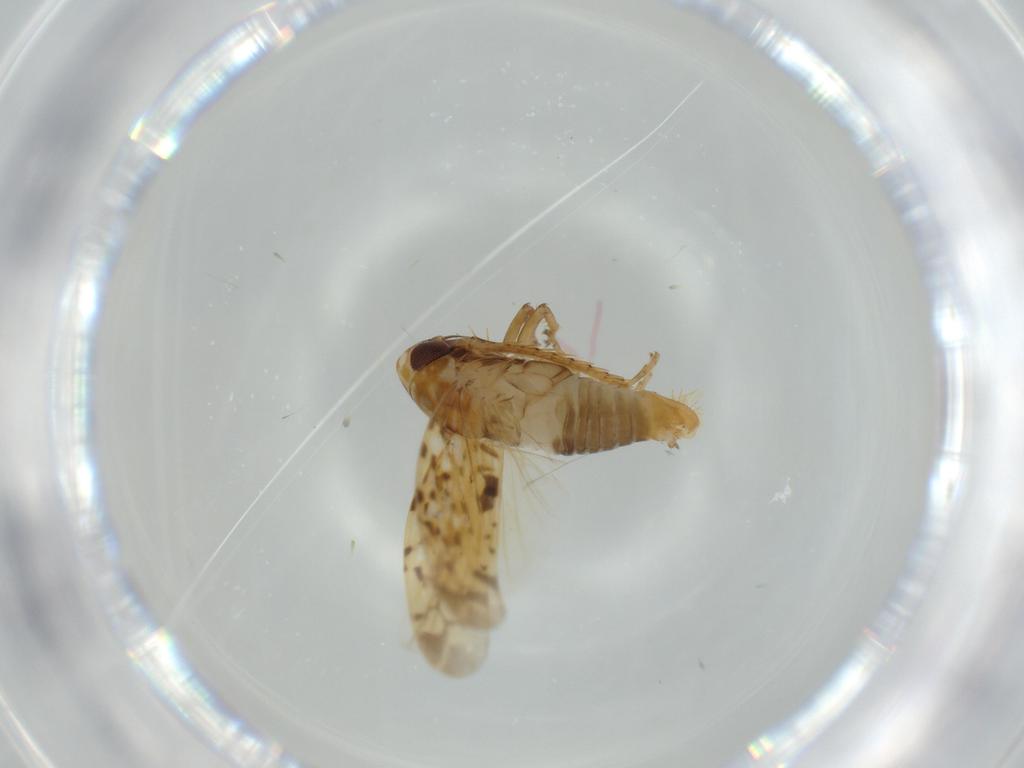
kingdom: Animalia
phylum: Arthropoda
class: Insecta
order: Hemiptera
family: Cicadellidae
